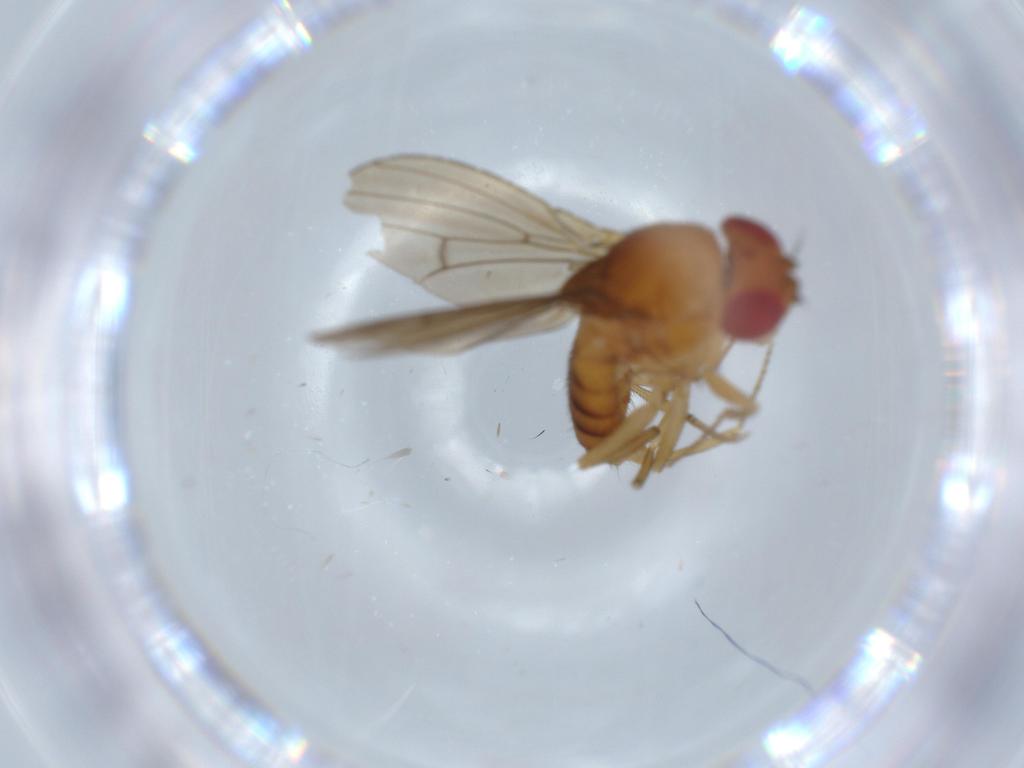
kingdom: Animalia
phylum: Arthropoda
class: Insecta
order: Diptera
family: Drosophilidae
